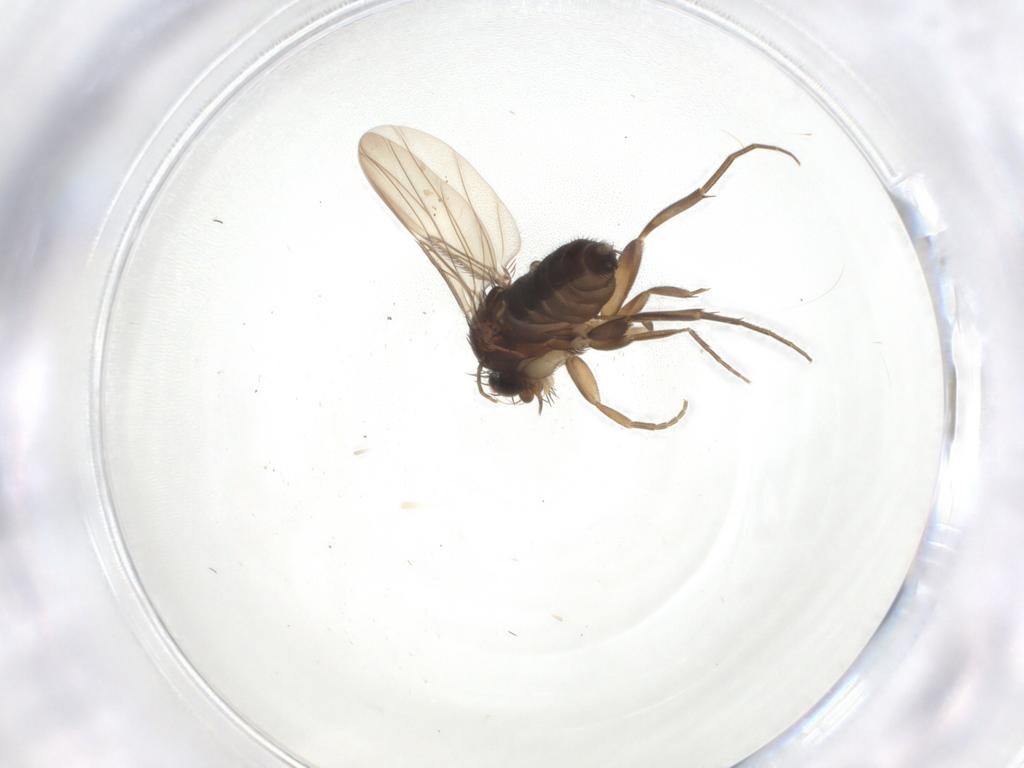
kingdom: Animalia
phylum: Arthropoda
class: Insecta
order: Diptera
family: Phoridae
